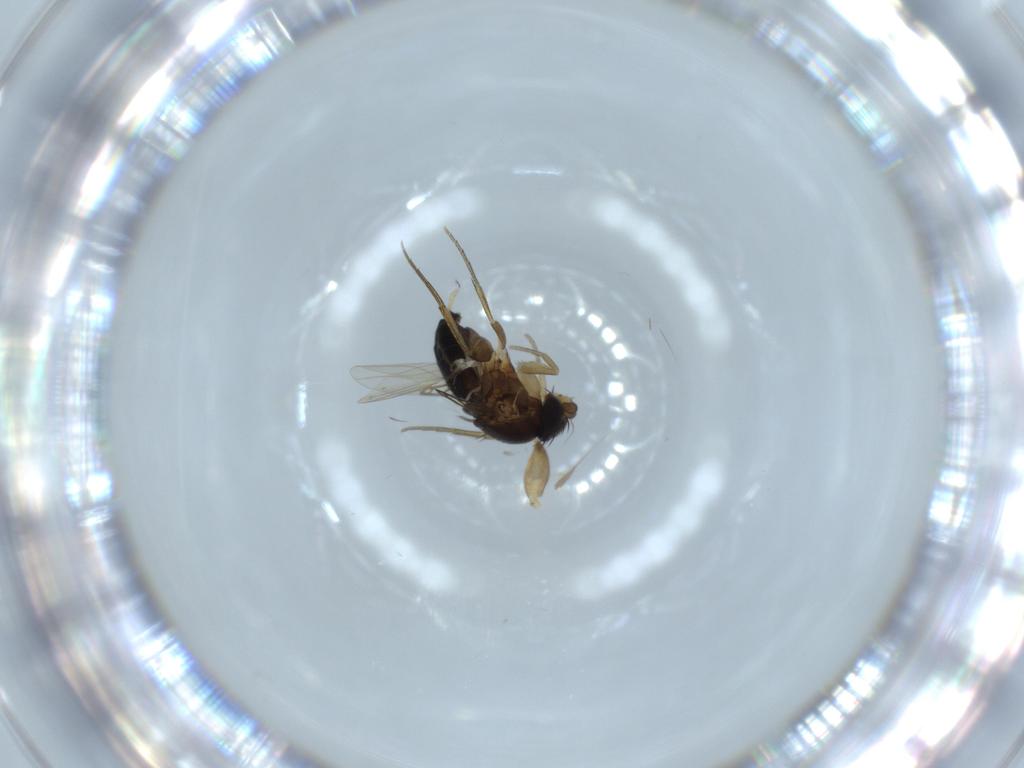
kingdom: Animalia
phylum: Arthropoda
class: Insecta
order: Diptera
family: Phoridae
